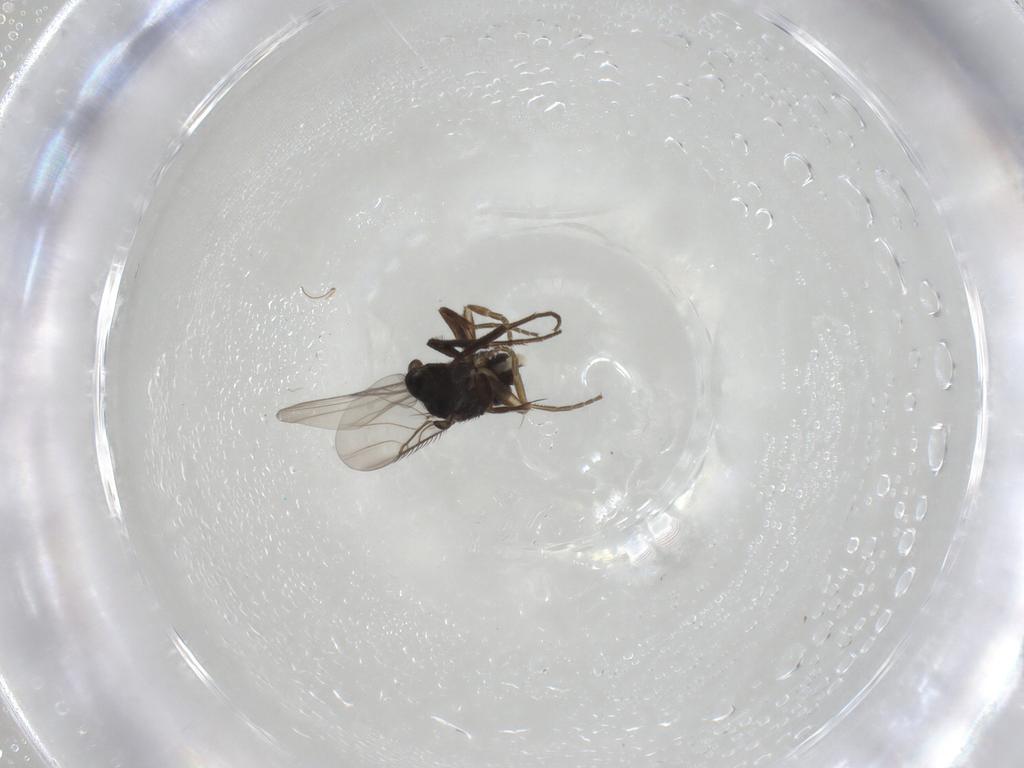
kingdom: Animalia
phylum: Arthropoda
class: Insecta
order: Diptera
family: Phoridae
